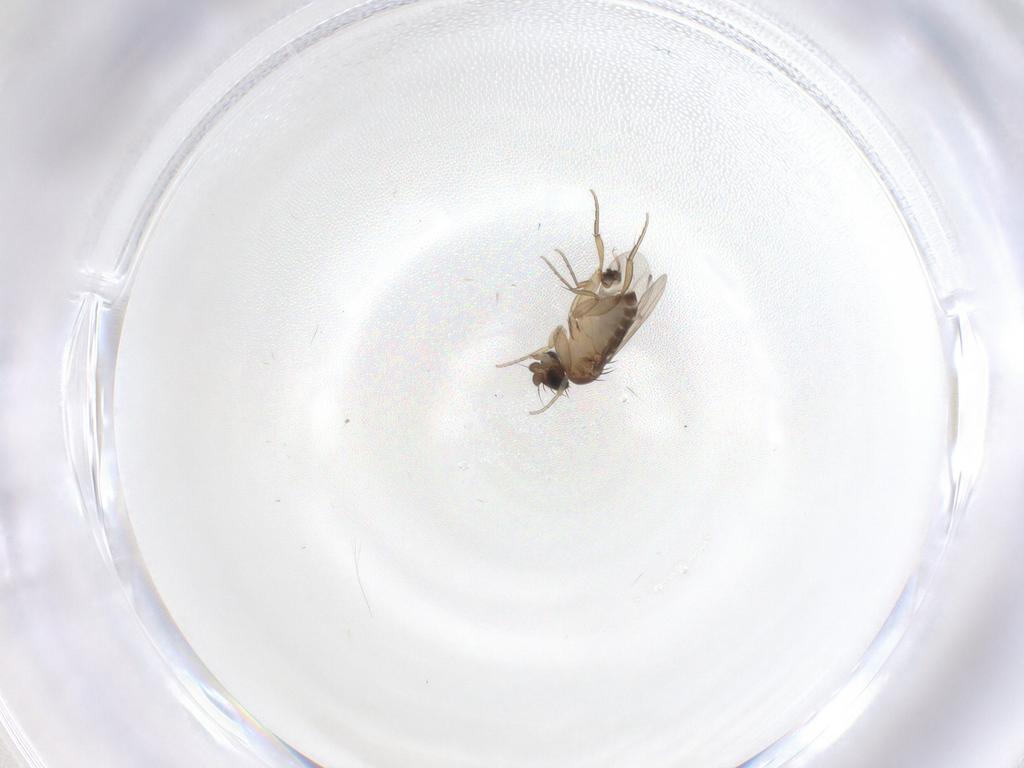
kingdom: Animalia
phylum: Arthropoda
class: Insecta
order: Diptera
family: Phoridae
